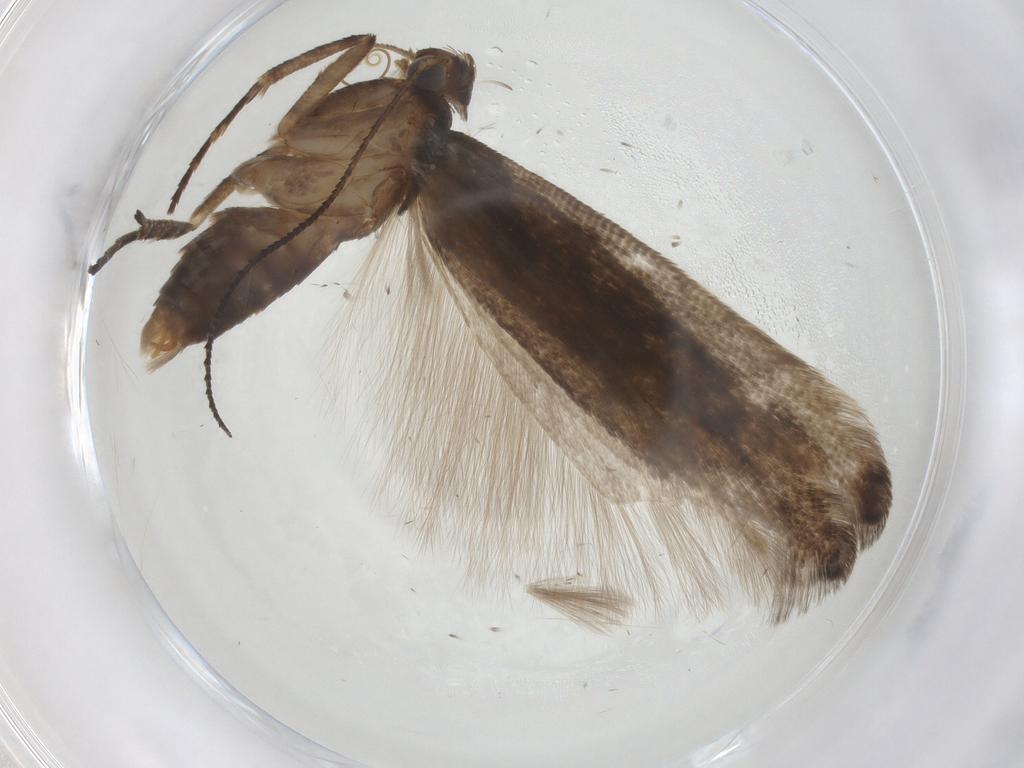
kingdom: Animalia
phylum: Arthropoda
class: Insecta
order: Lepidoptera
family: Gelechiidae
